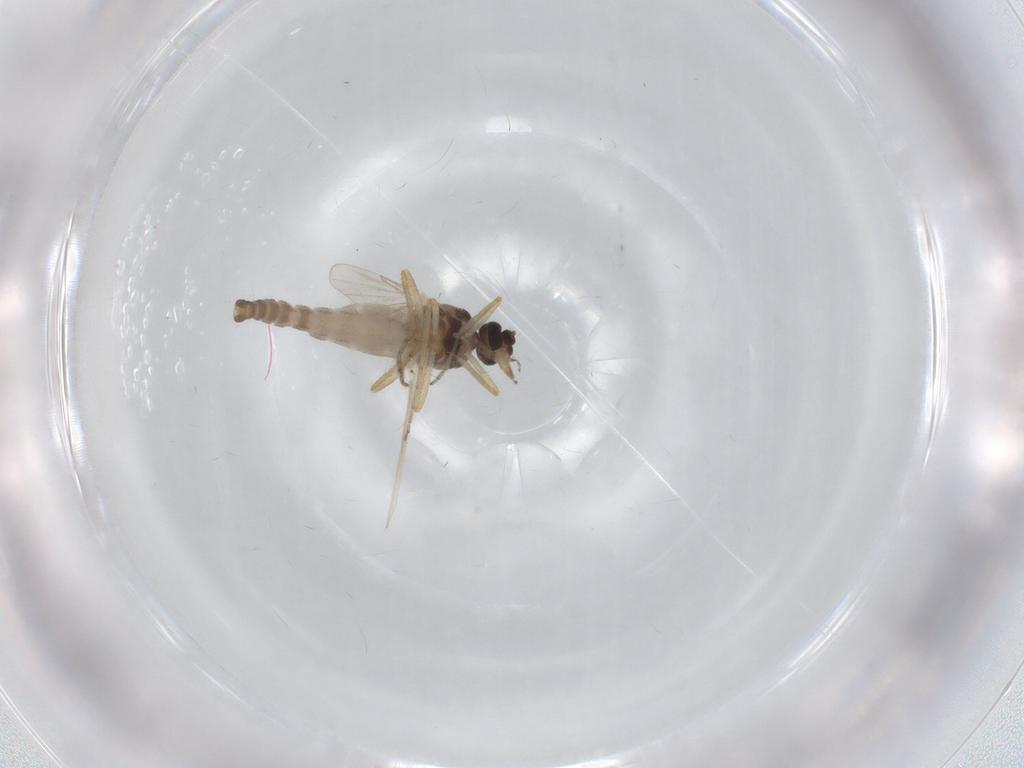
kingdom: Animalia
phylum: Arthropoda
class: Insecta
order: Diptera
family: Ceratopogonidae
